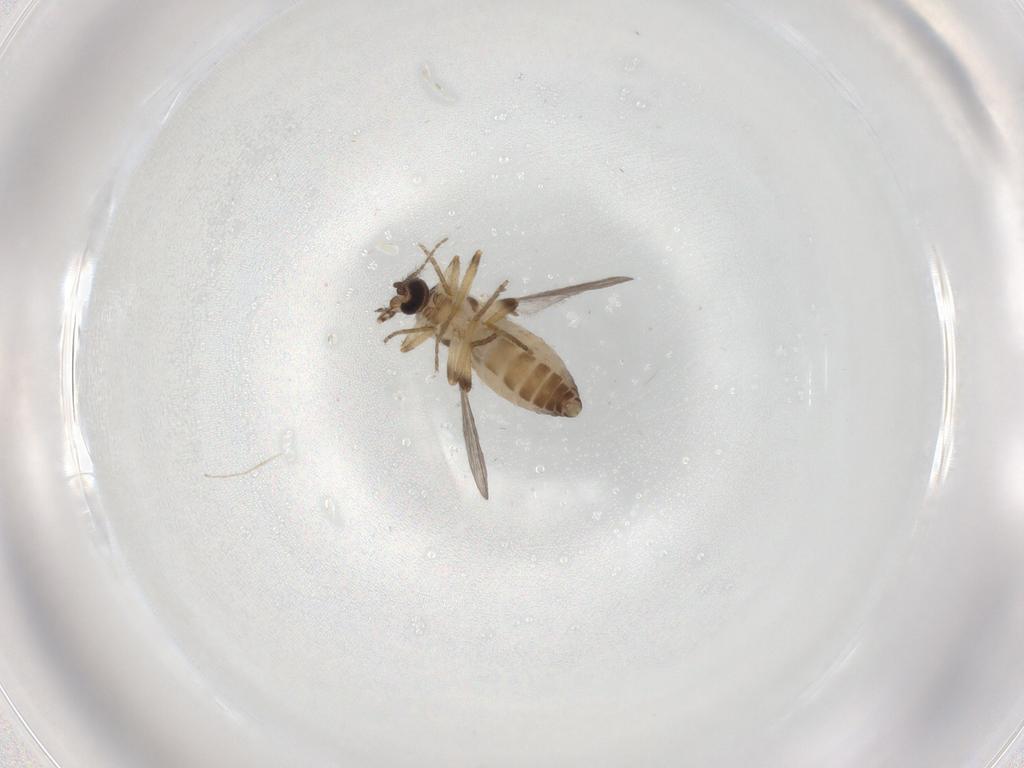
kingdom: Animalia
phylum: Arthropoda
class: Insecta
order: Diptera
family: Ceratopogonidae
